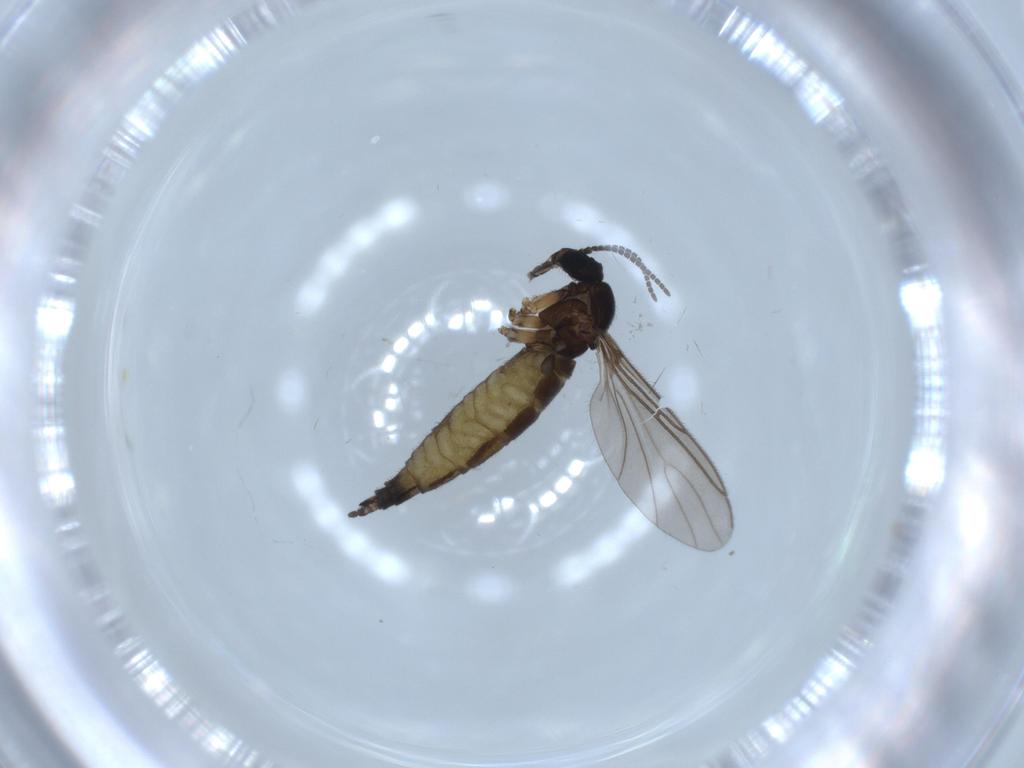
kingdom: Animalia
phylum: Arthropoda
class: Insecta
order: Diptera
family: Sciaridae
